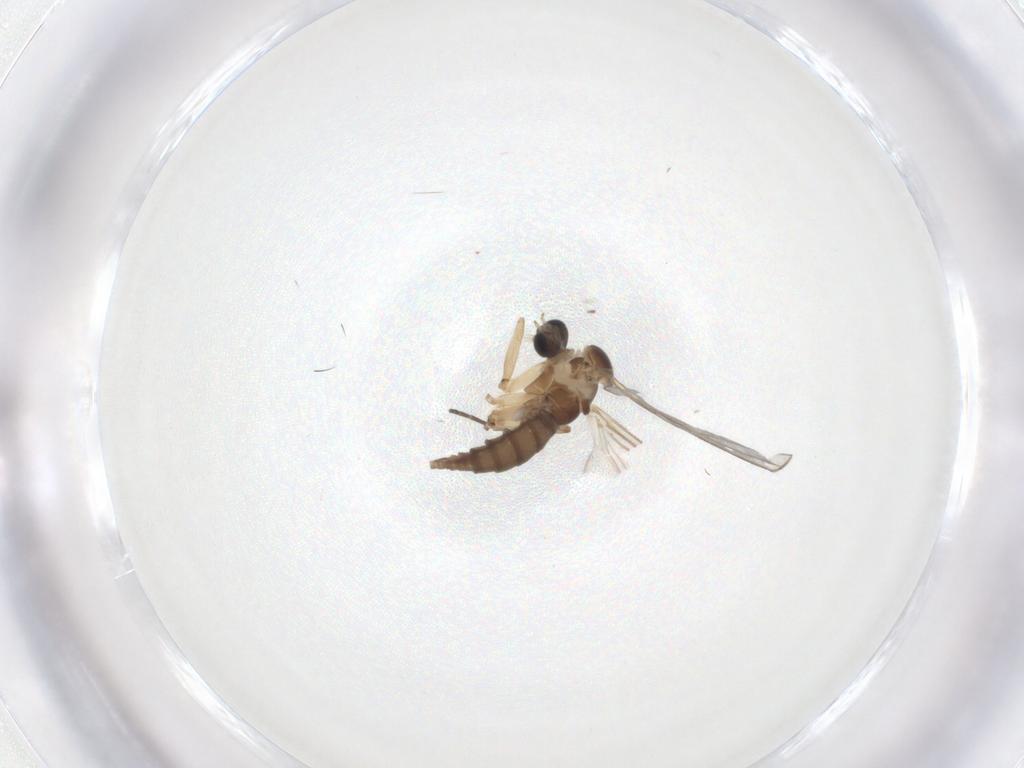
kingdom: Animalia
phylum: Arthropoda
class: Insecta
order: Diptera
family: Sciaridae
